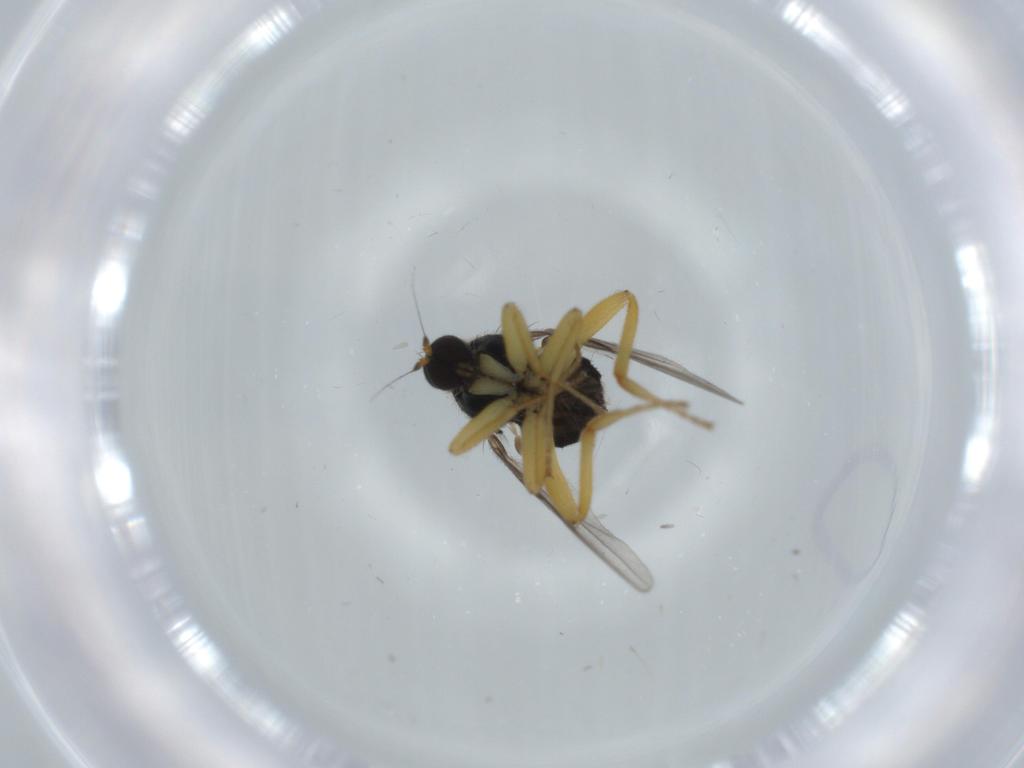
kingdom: Animalia
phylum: Arthropoda
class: Insecta
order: Diptera
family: Hybotidae
